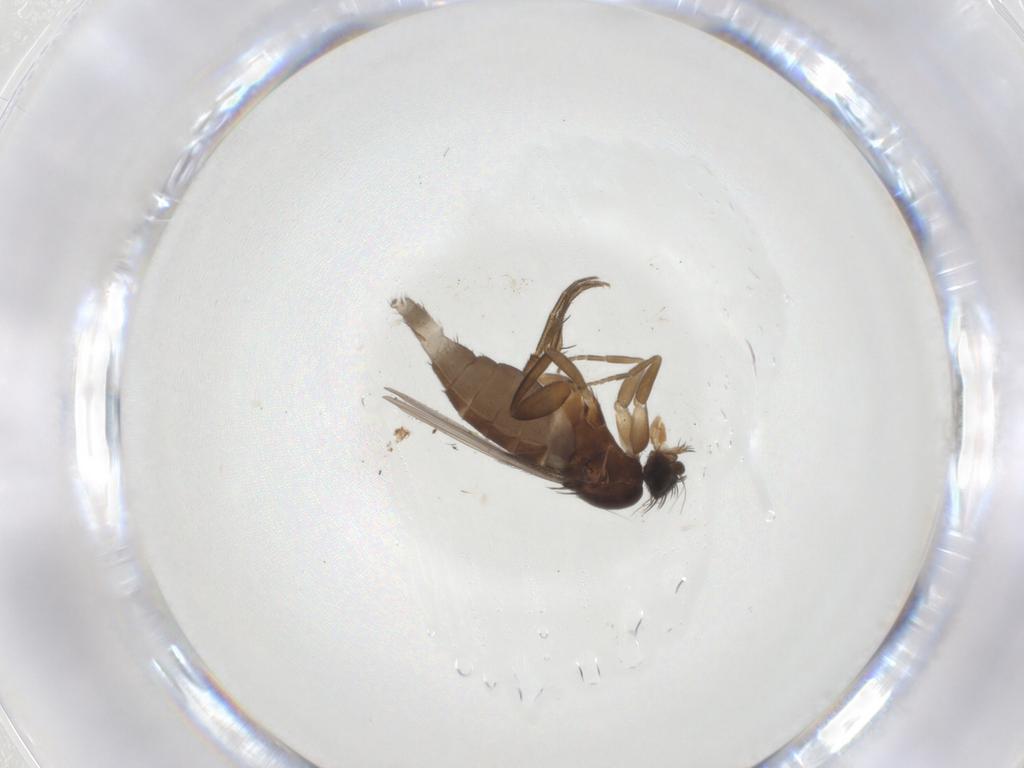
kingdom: Animalia
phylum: Arthropoda
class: Insecta
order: Diptera
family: Phoridae
